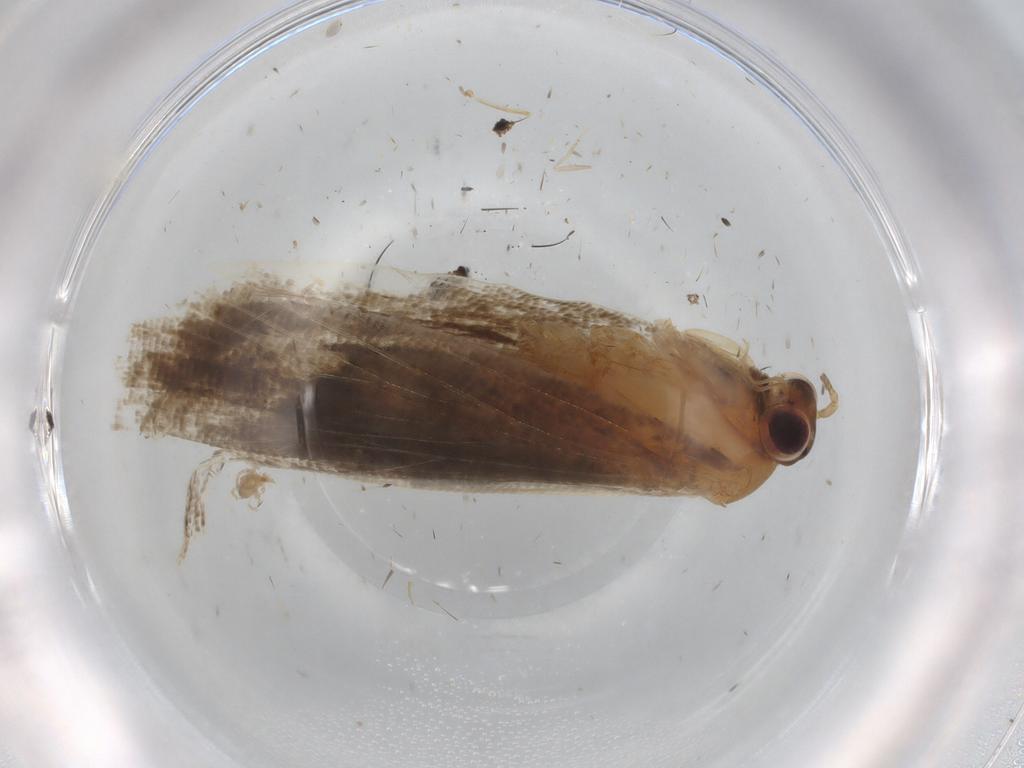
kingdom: Animalia
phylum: Arthropoda
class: Insecta
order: Lepidoptera
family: Tortricidae
